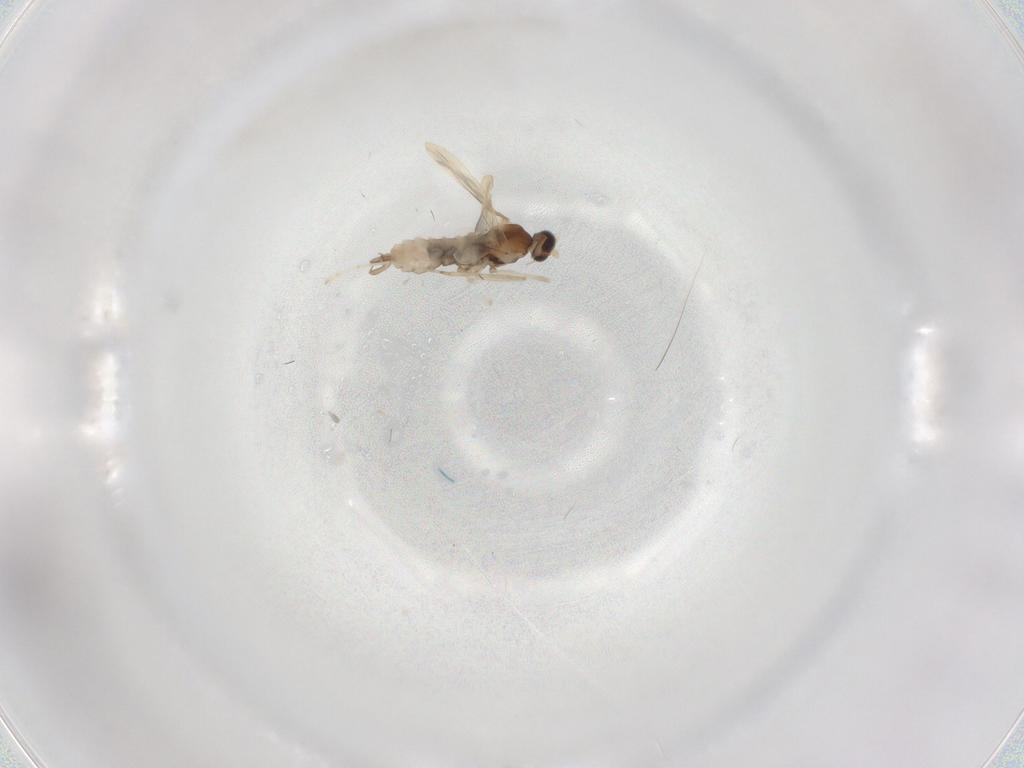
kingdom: Animalia
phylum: Arthropoda
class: Insecta
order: Diptera
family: Cecidomyiidae
